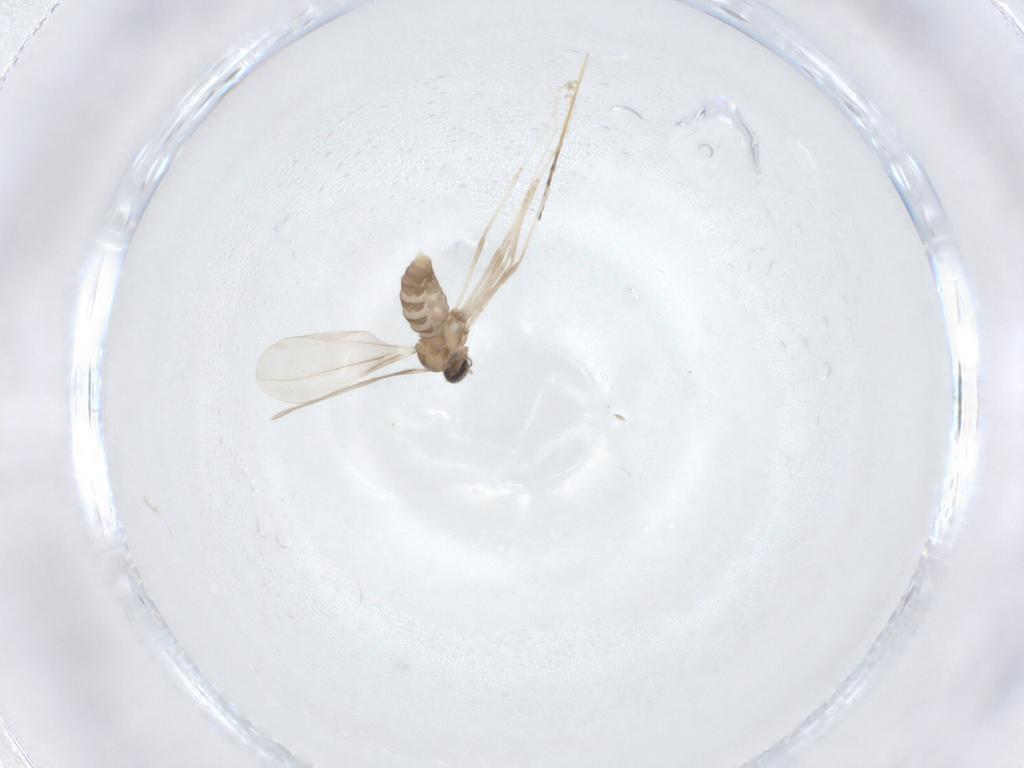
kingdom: Animalia
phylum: Arthropoda
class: Insecta
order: Diptera
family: Cecidomyiidae
